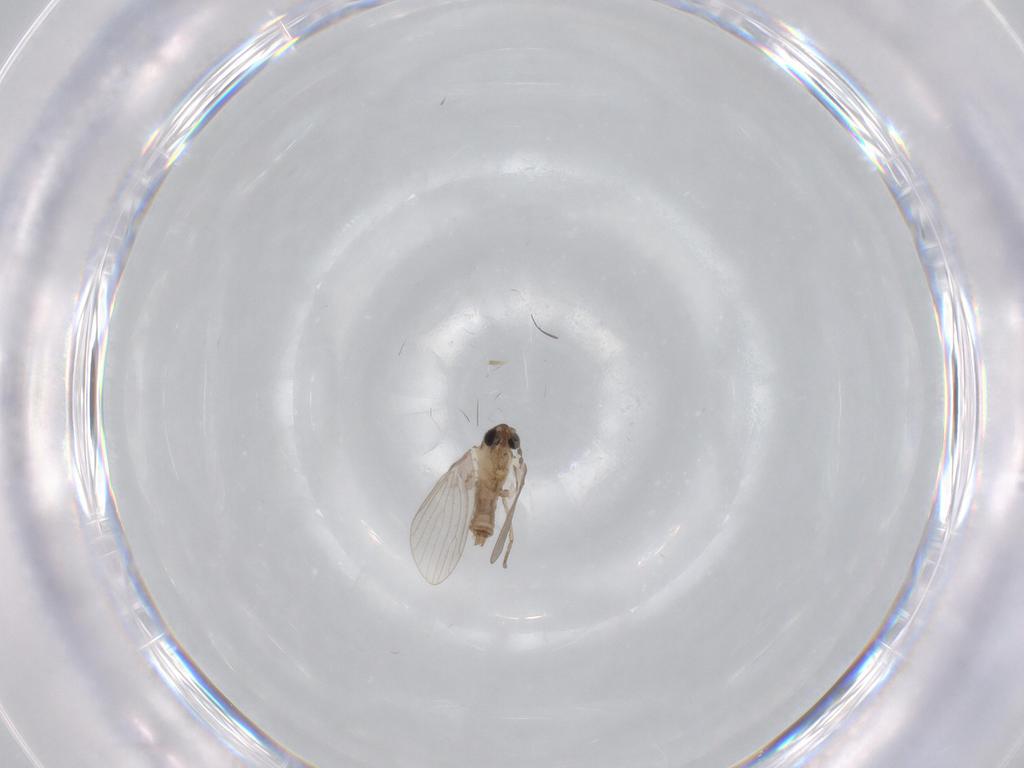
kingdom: Animalia
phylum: Arthropoda
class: Insecta
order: Diptera
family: Psychodidae
